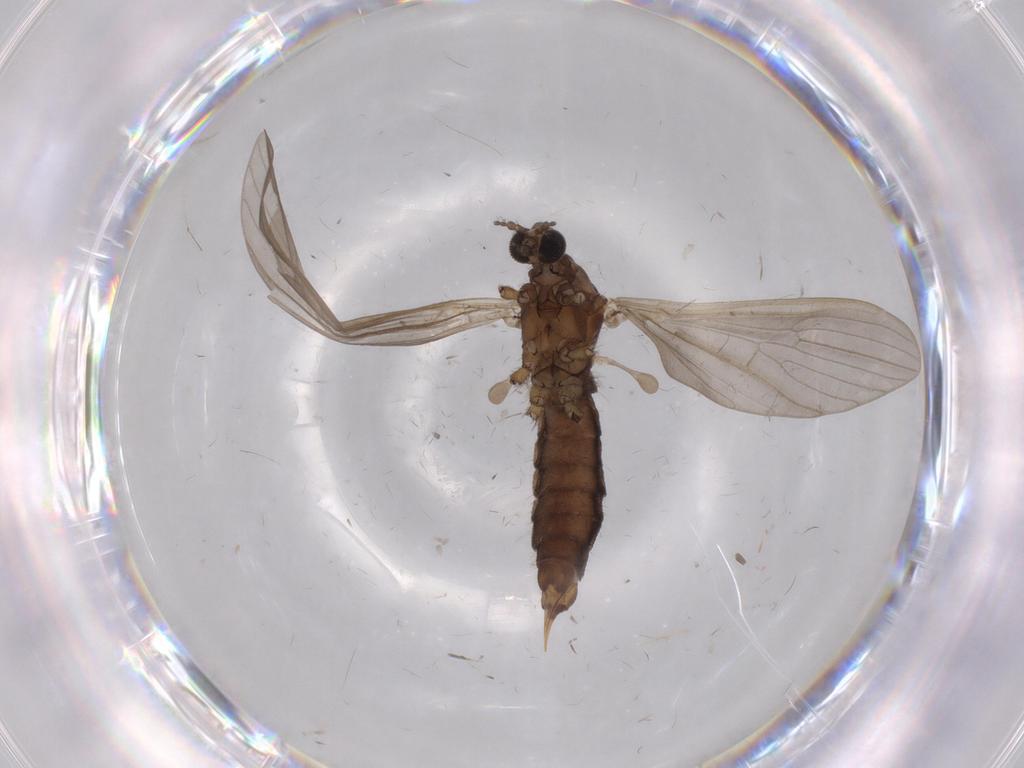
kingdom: Animalia
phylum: Arthropoda
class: Insecta
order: Diptera
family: Limoniidae
